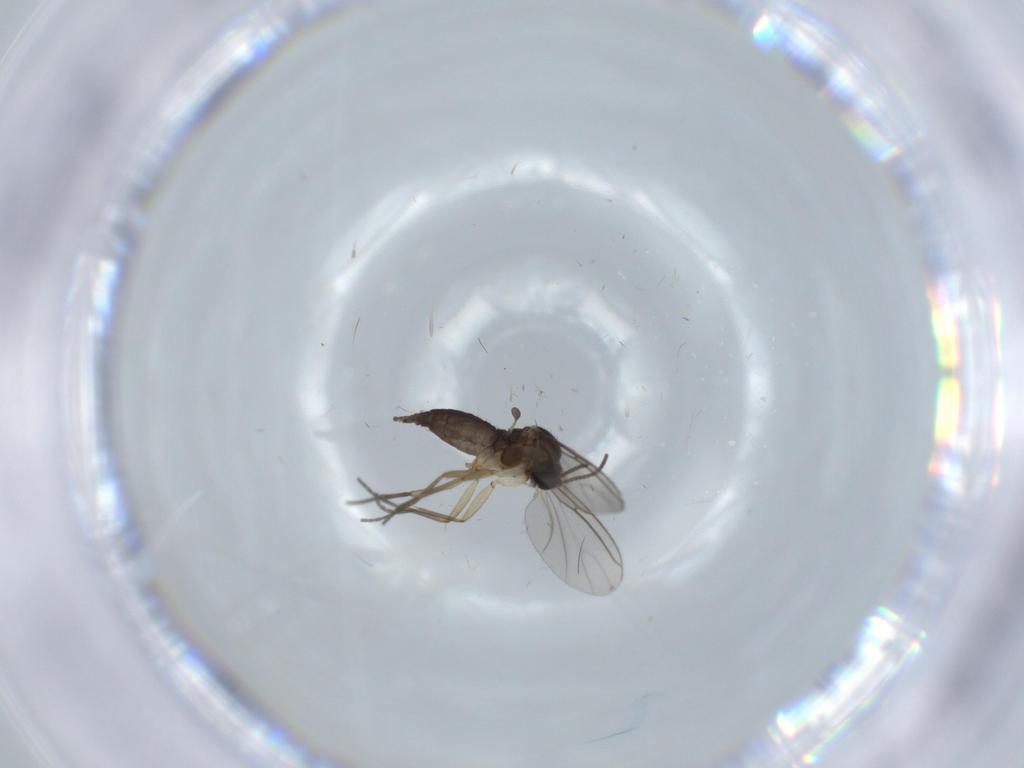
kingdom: Animalia
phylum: Arthropoda
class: Insecta
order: Diptera
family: Sciaridae
